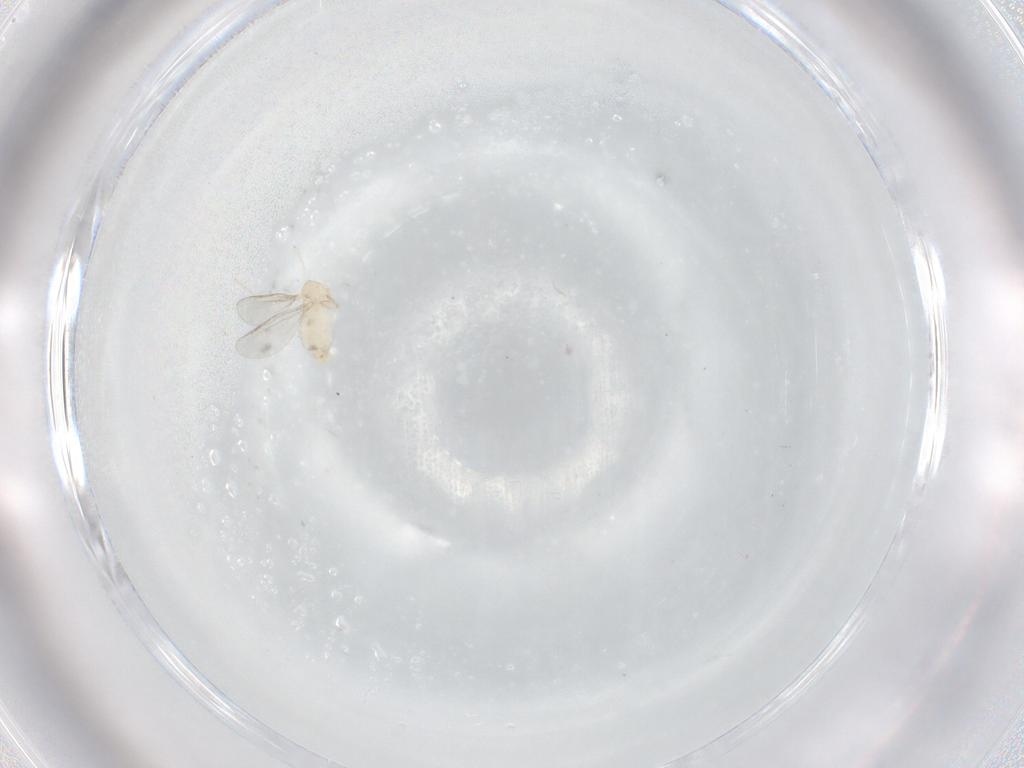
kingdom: Animalia
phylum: Arthropoda
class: Insecta
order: Diptera
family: Cecidomyiidae
